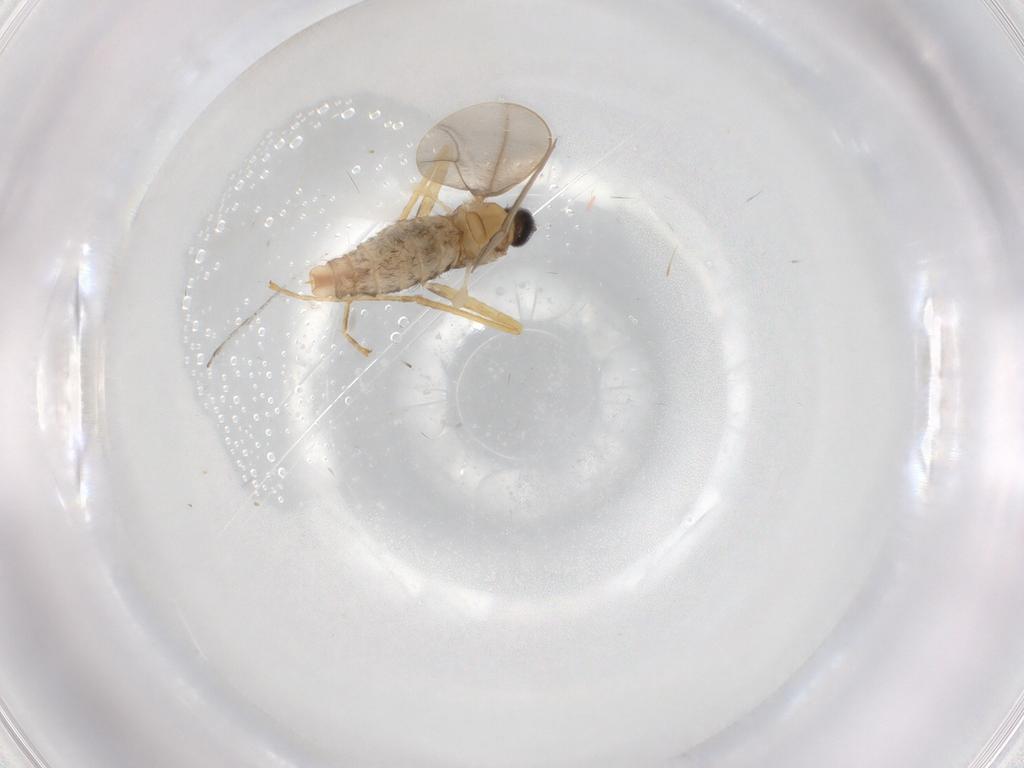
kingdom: Animalia
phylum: Arthropoda
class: Insecta
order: Diptera
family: Cecidomyiidae
